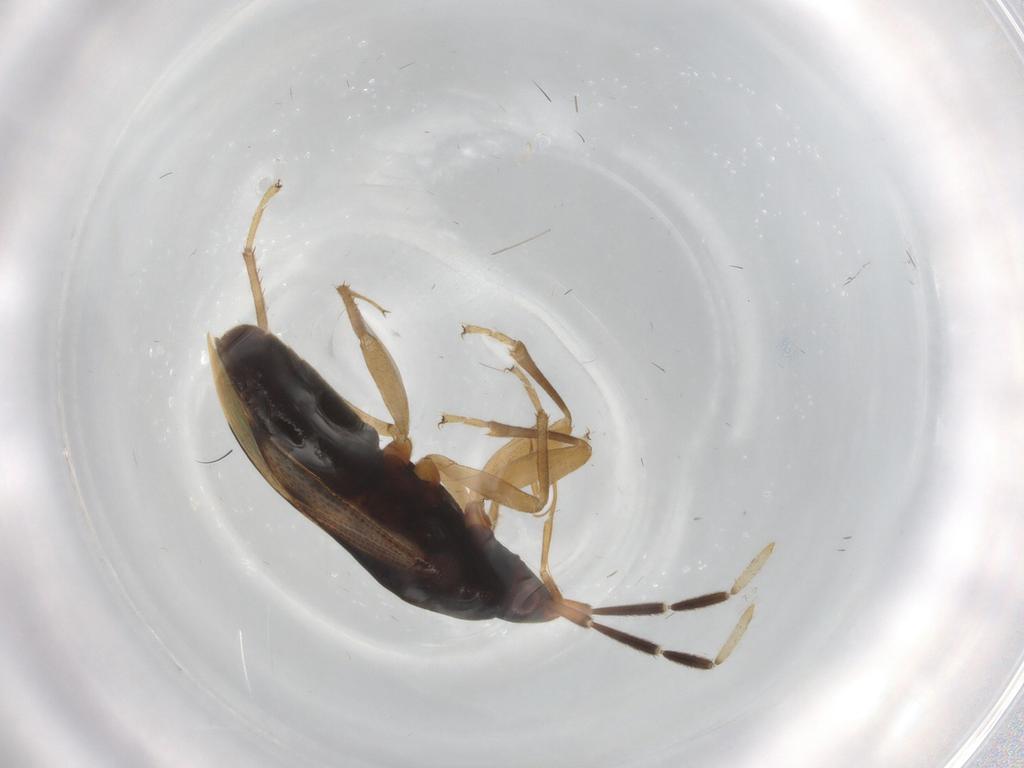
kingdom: Animalia
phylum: Arthropoda
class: Insecta
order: Hemiptera
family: Rhyparochromidae
